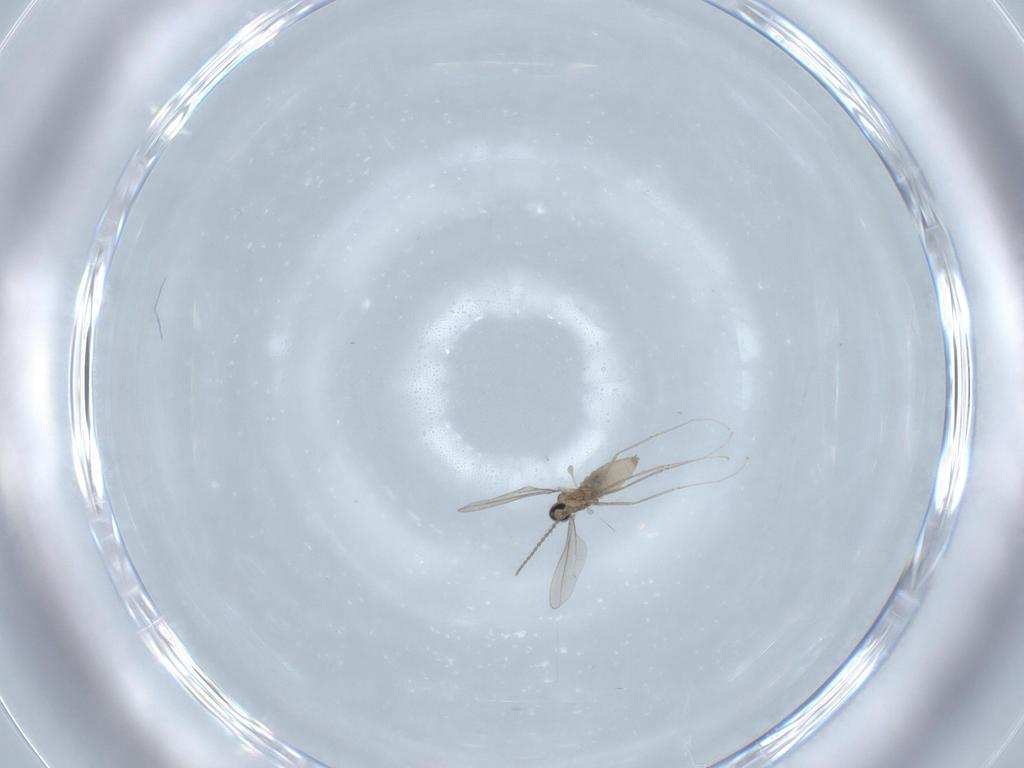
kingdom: Animalia
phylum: Arthropoda
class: Insecta
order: Diptera
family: Cecidomyiidae
